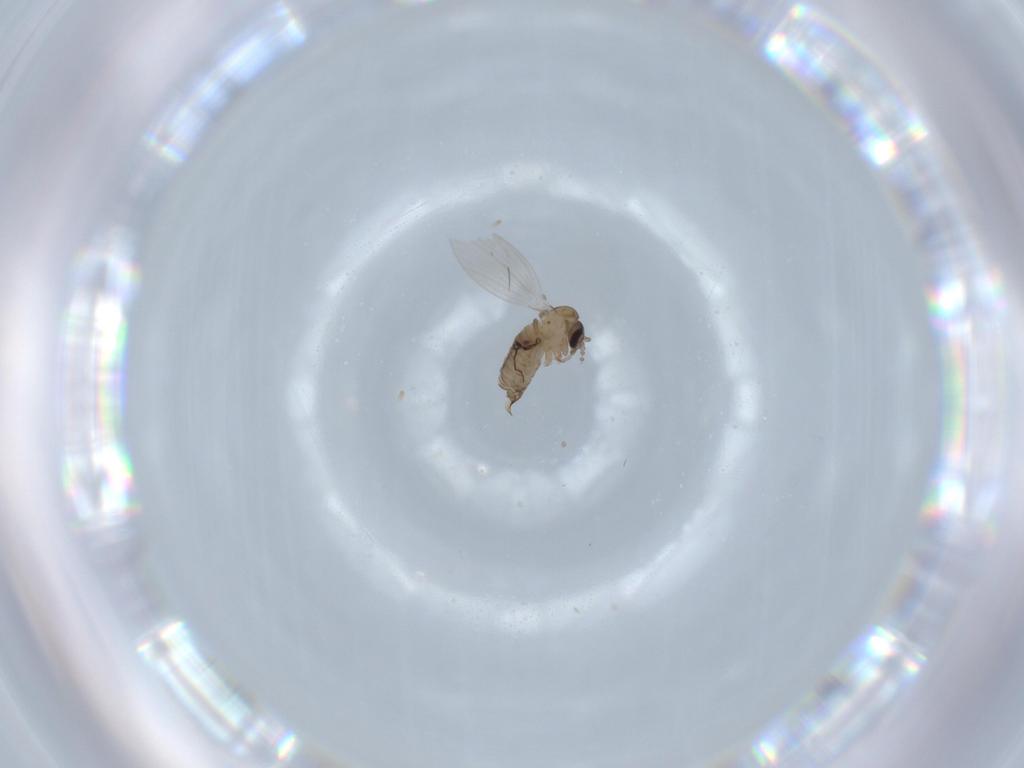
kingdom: Animalia
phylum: Arthropoda
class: Insecta
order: Diptera
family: Psychodidae
